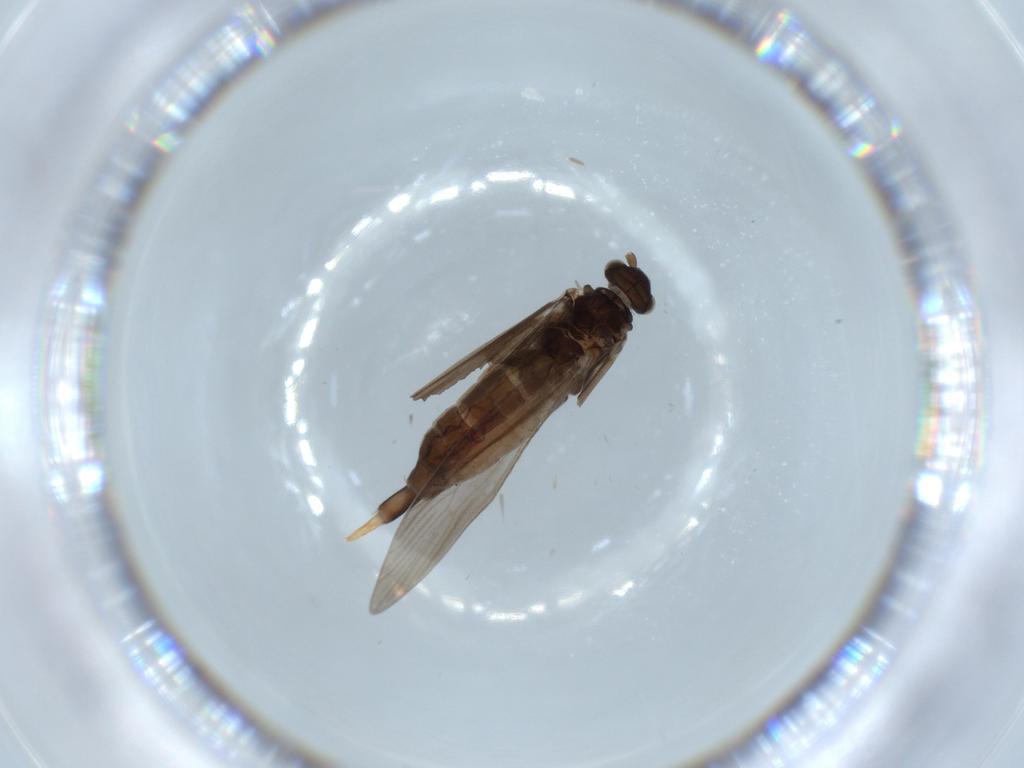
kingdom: Animalia
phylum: Arthropoda
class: Insecta
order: Trichoptera
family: Xiphocentronidae
